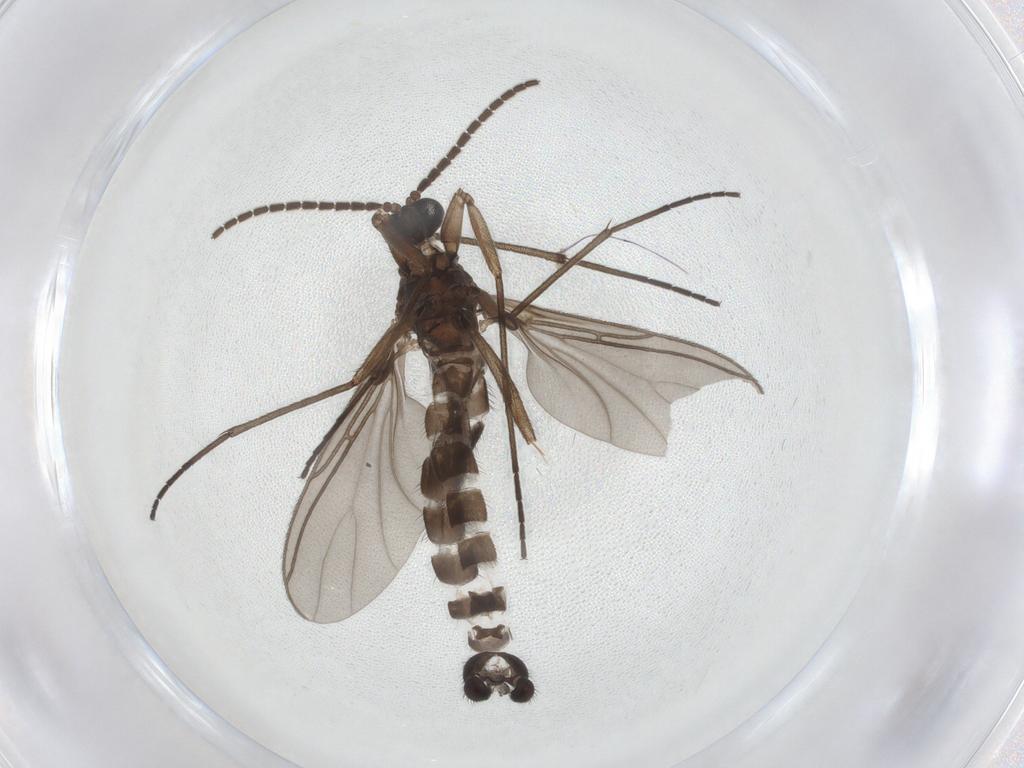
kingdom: Animalia
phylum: Arthropoda
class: Insecta
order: Diptera
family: Sciaridae
